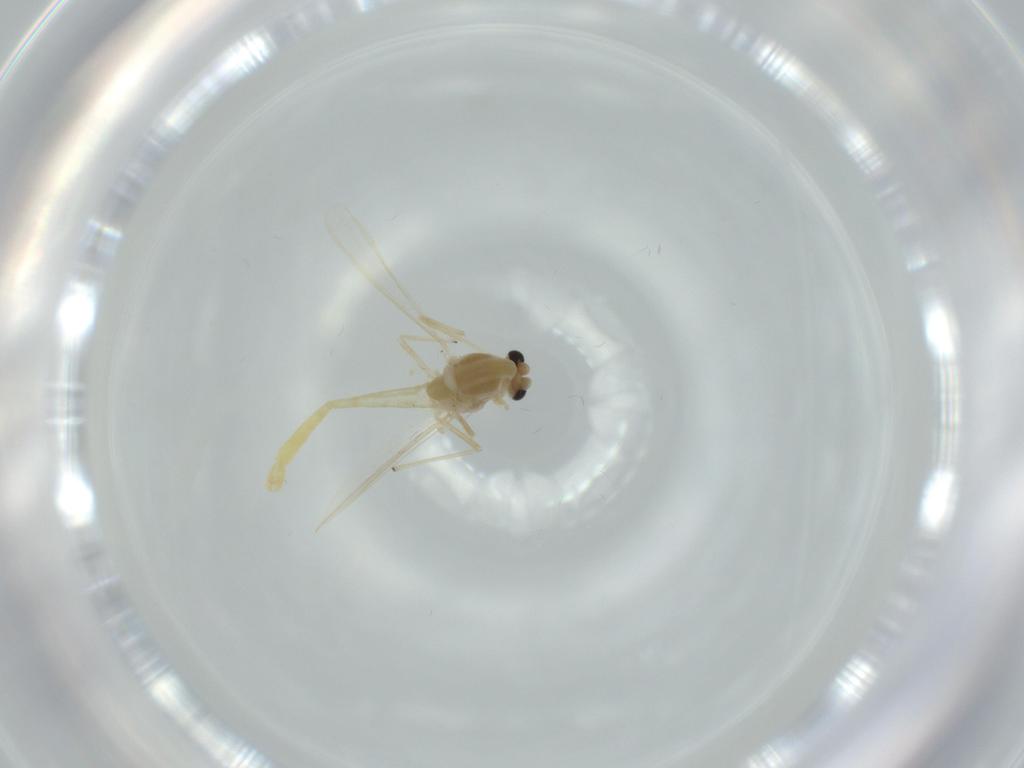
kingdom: Animalia
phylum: Arthropoda
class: Insecta
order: Diptera
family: Chironomidae
